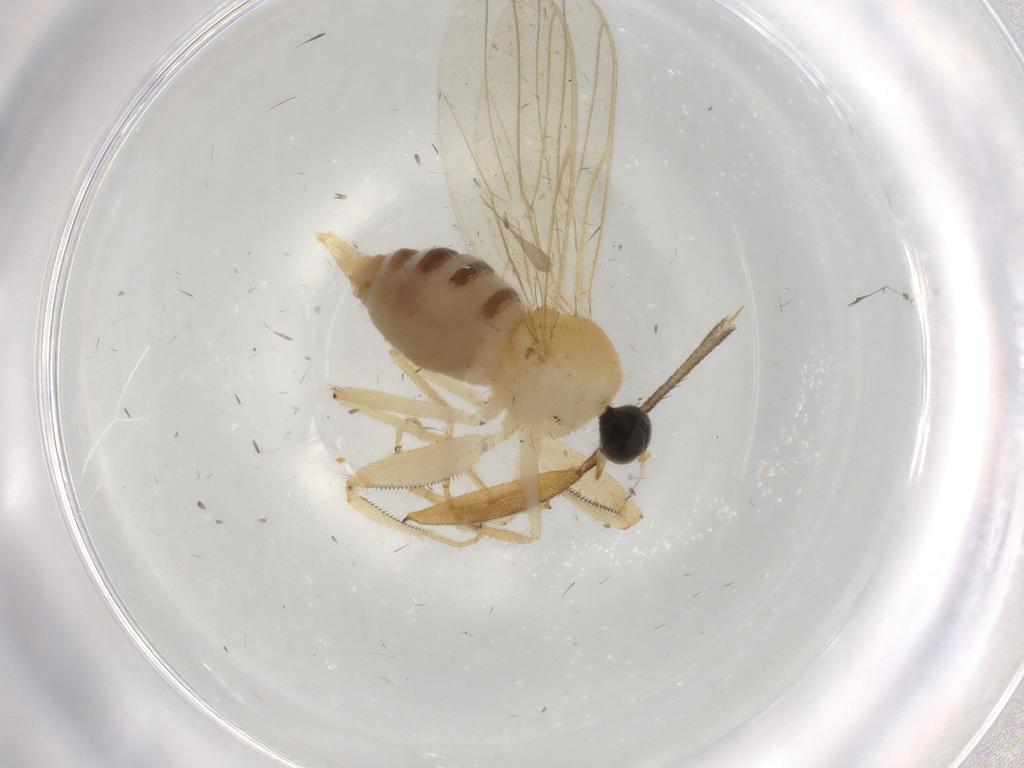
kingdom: Animalia
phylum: Arthropoda
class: Insecta
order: Diptera
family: Hybotidae
